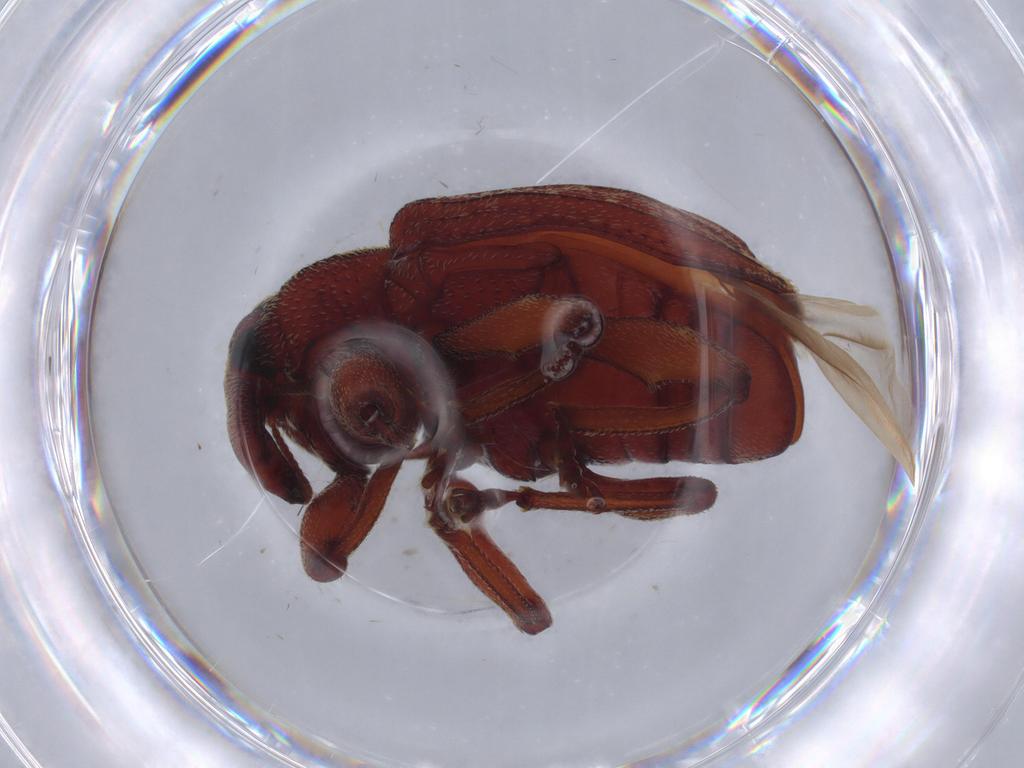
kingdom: Animalia
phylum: Arthropoda
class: Insecta
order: Coleoptera
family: Curculionidae
